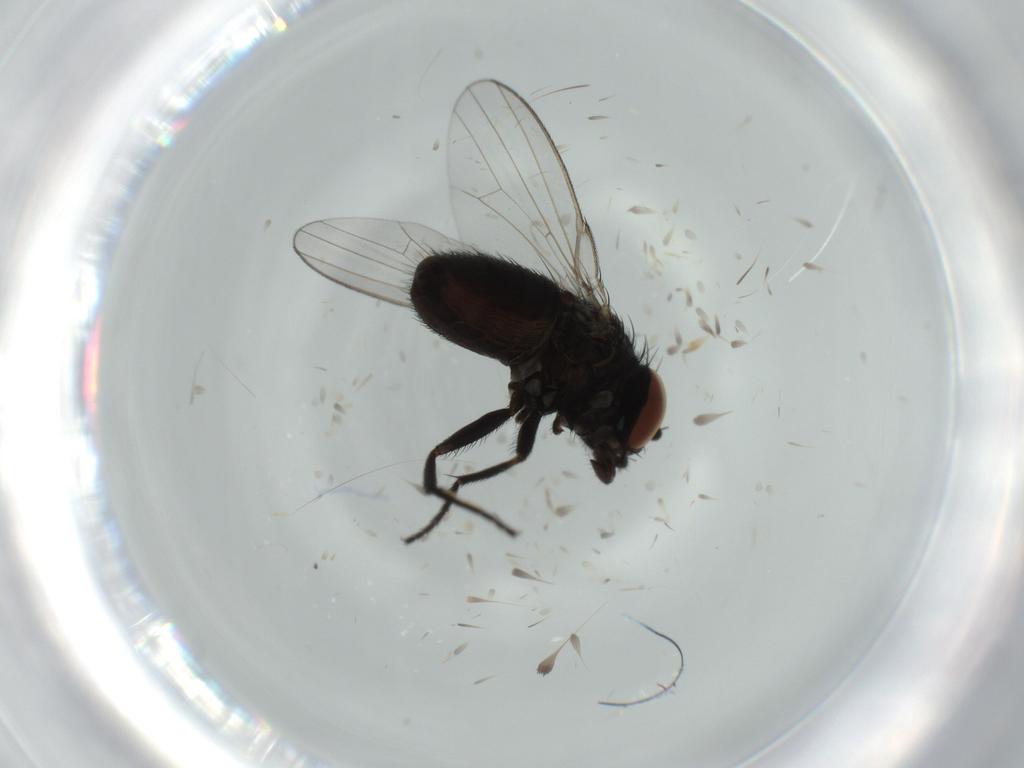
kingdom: Animalia
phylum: Arthropoda
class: Insecta
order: Diptera
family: Milichiidae
